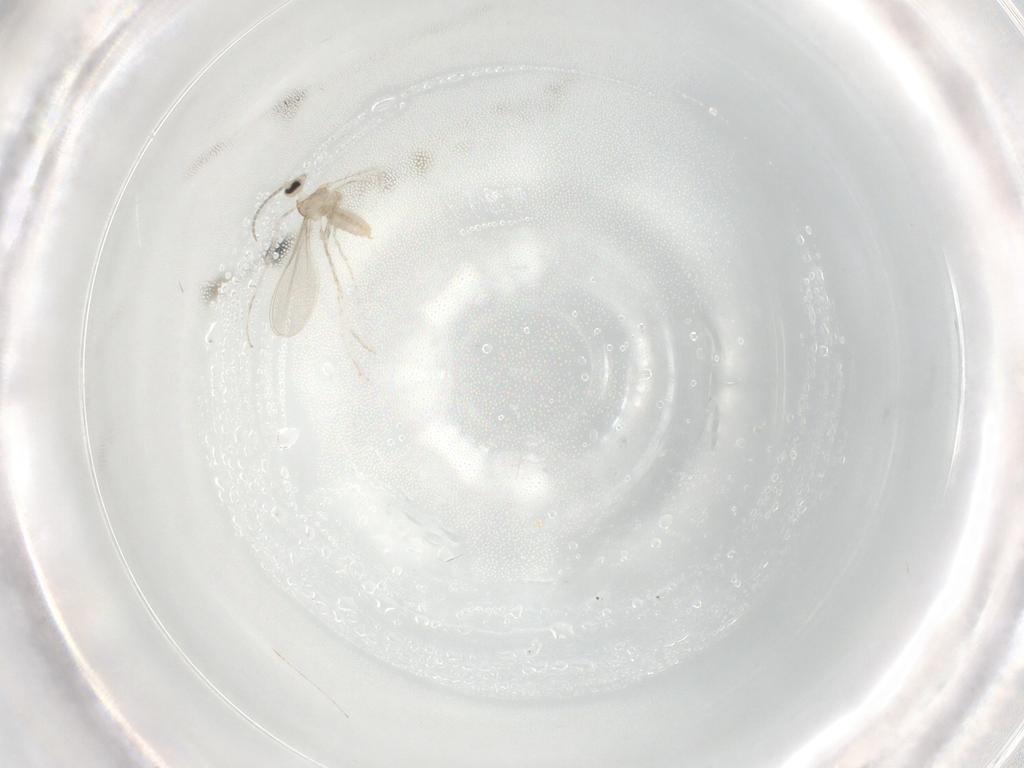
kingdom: Animalia
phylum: Arthropoda
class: Insecta
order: Diptera
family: Cecidomyiidae
